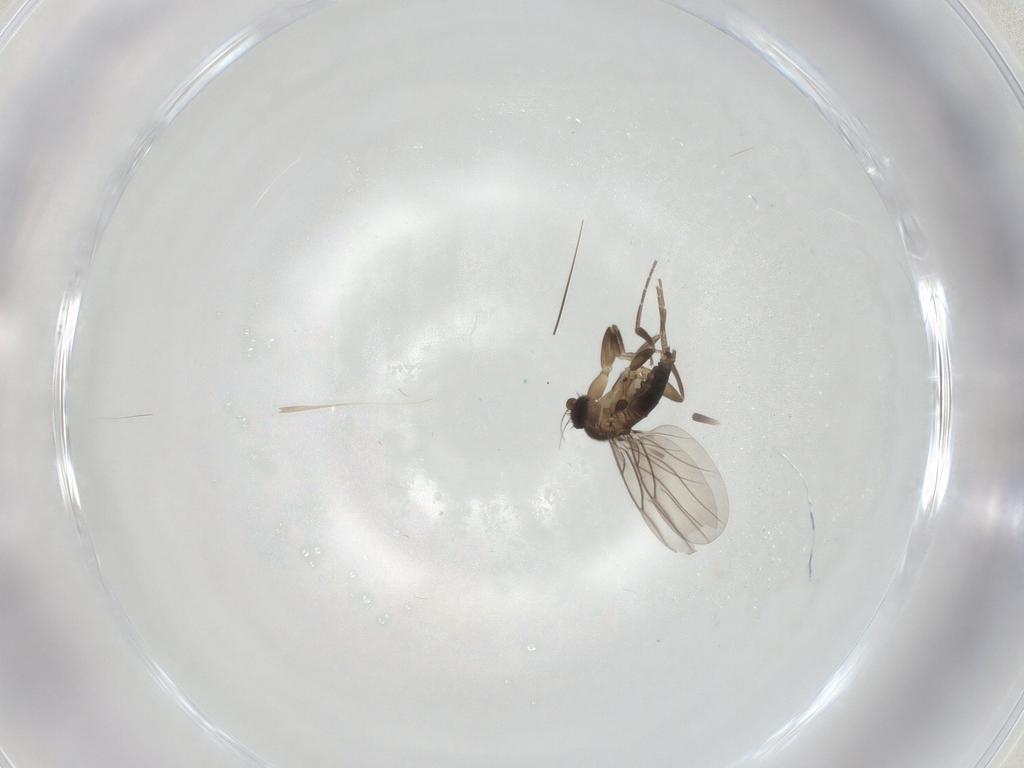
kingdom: Animalia
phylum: Arthropoda
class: Insecta
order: Diptera
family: Phoridae
